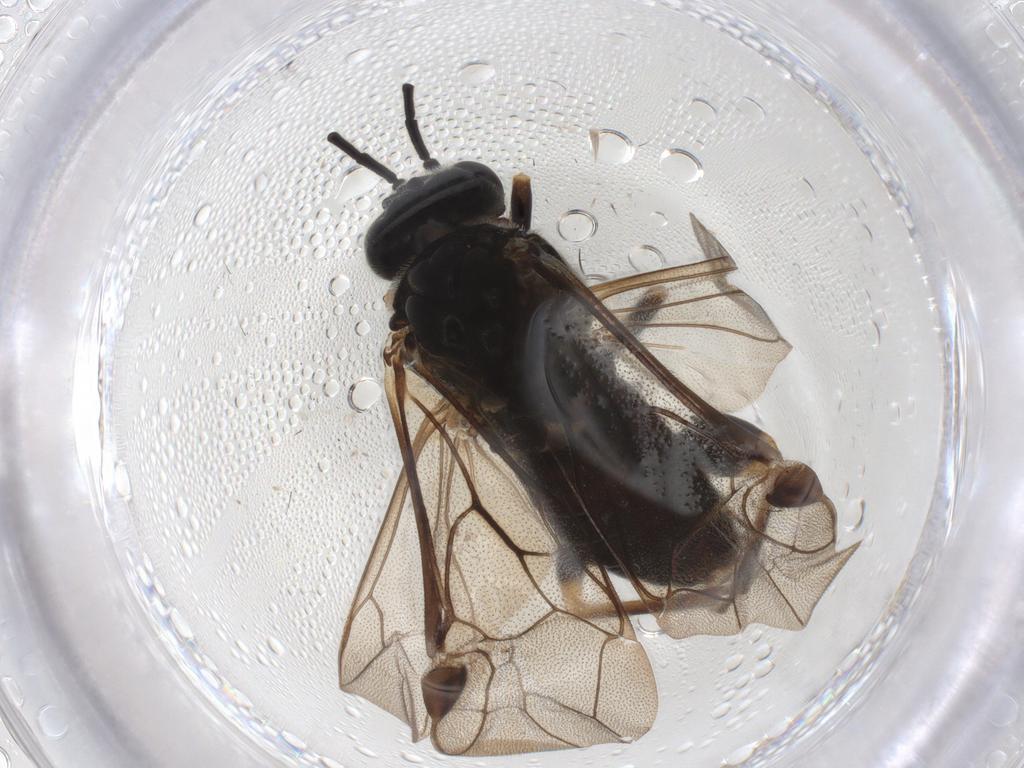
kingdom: Animalia
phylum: Arthropoda
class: Insecta
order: Hymenoptera
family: Tenthredinidae
